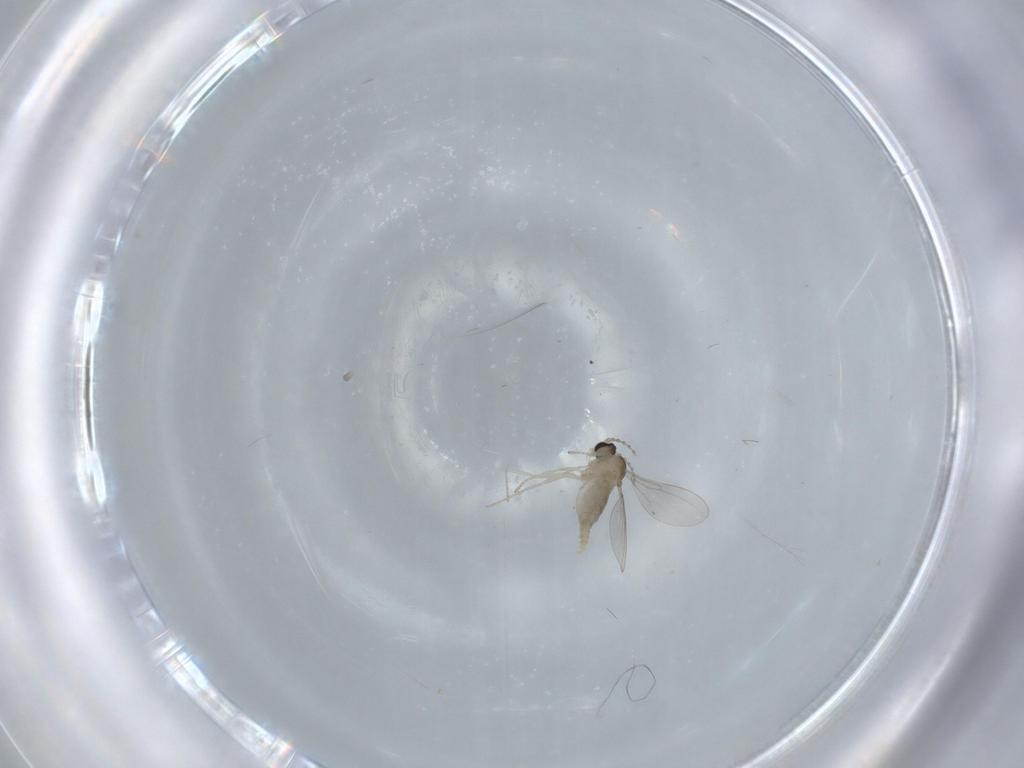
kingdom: Animalia
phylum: Arthropoda
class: Insecta
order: Diptera
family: Cecidomyiidae
